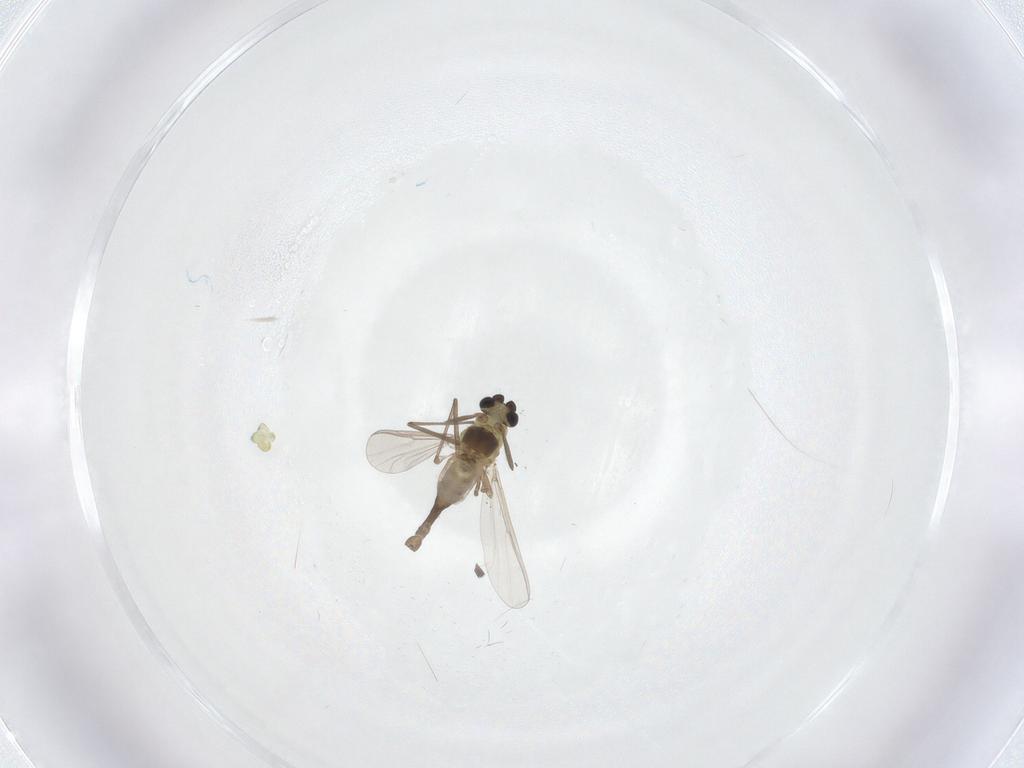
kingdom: Animalia
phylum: Arthropoda
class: Insecta
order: Diptera
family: Chironomidae
